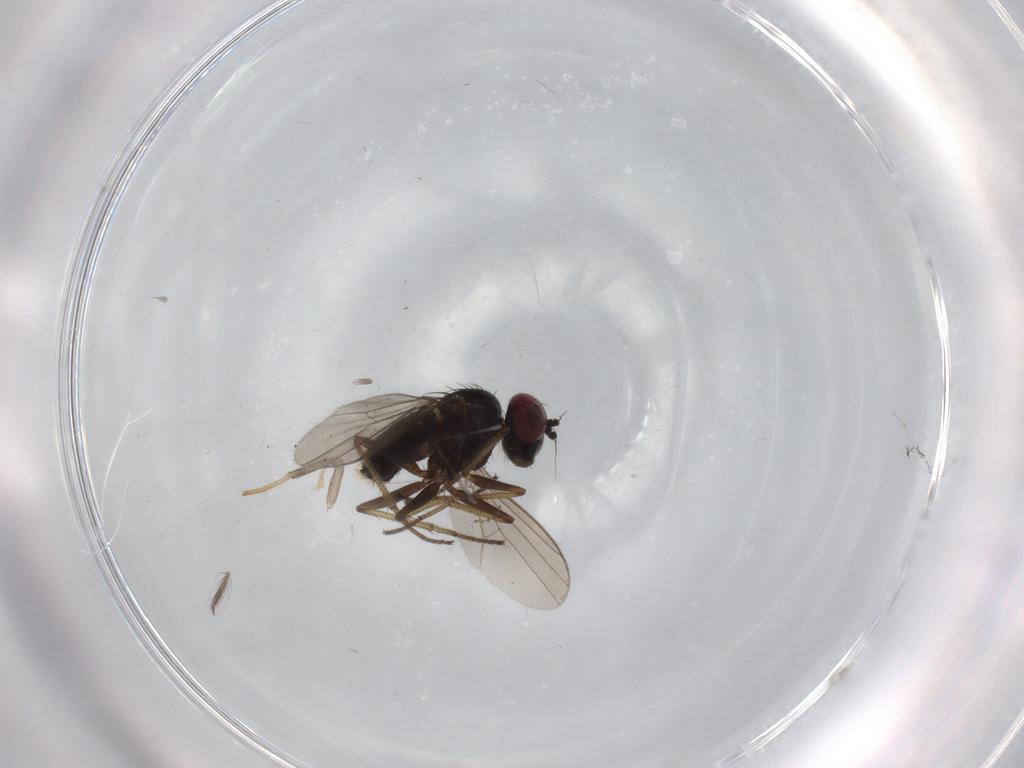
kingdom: Animalia
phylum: Arthropoda
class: Insecta
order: Diptera
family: Dolichopodidae
